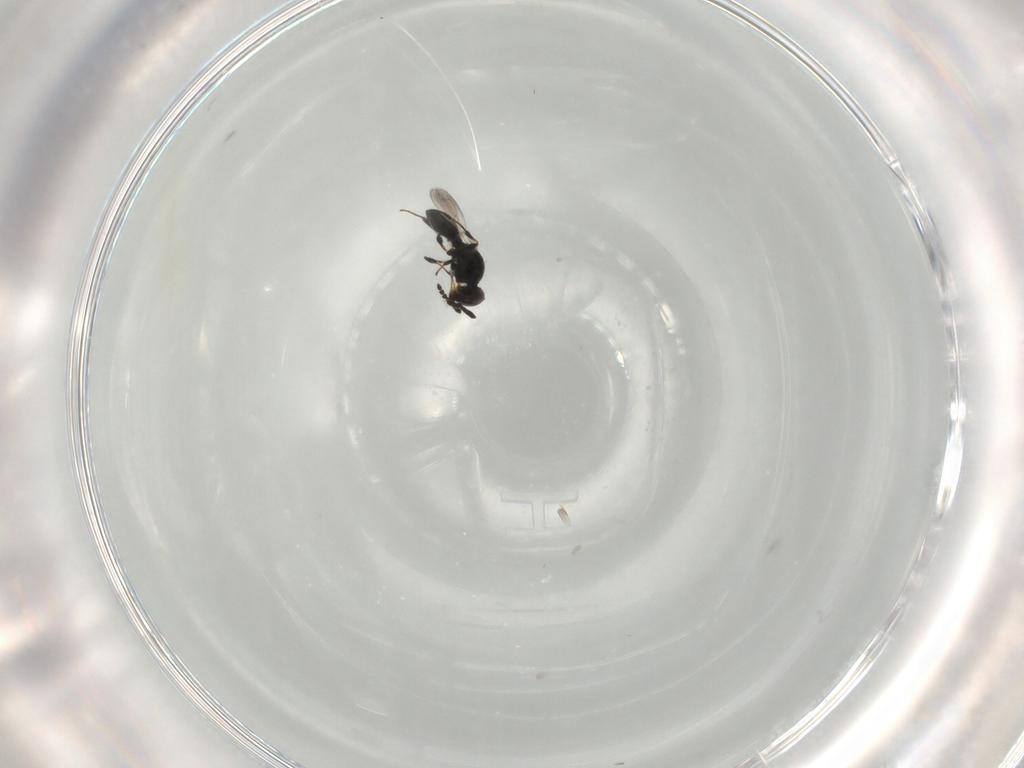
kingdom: Animalia
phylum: Arthropoda
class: Insecta
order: Hymenoptera
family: Platygastridae
